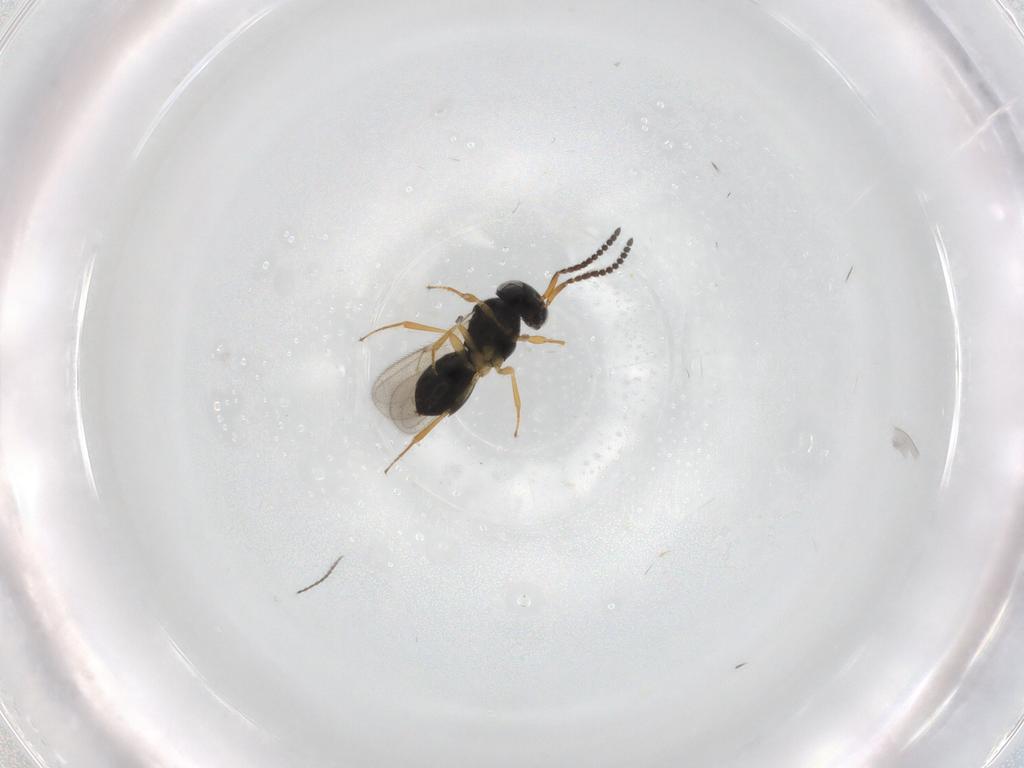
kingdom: Animalia
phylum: Arthropoda
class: Insecta
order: Hymenoptera
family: Scelionidae
